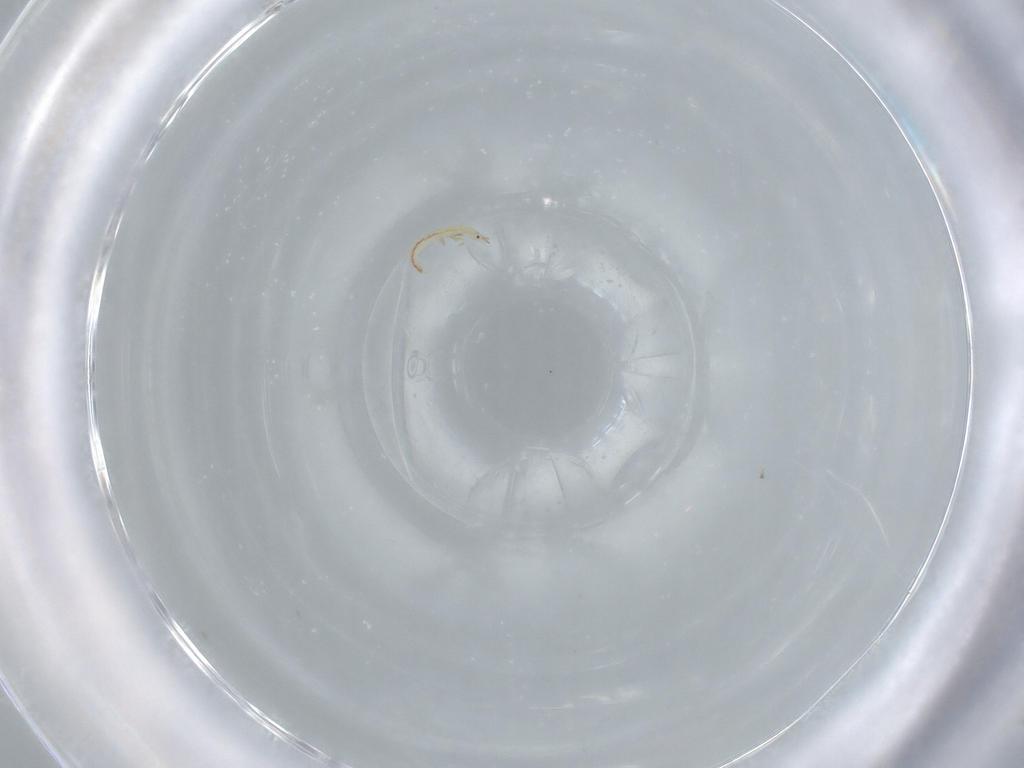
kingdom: Animalia
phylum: Arthropoda
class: Insecta
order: Neuroptera
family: Mantispidae
